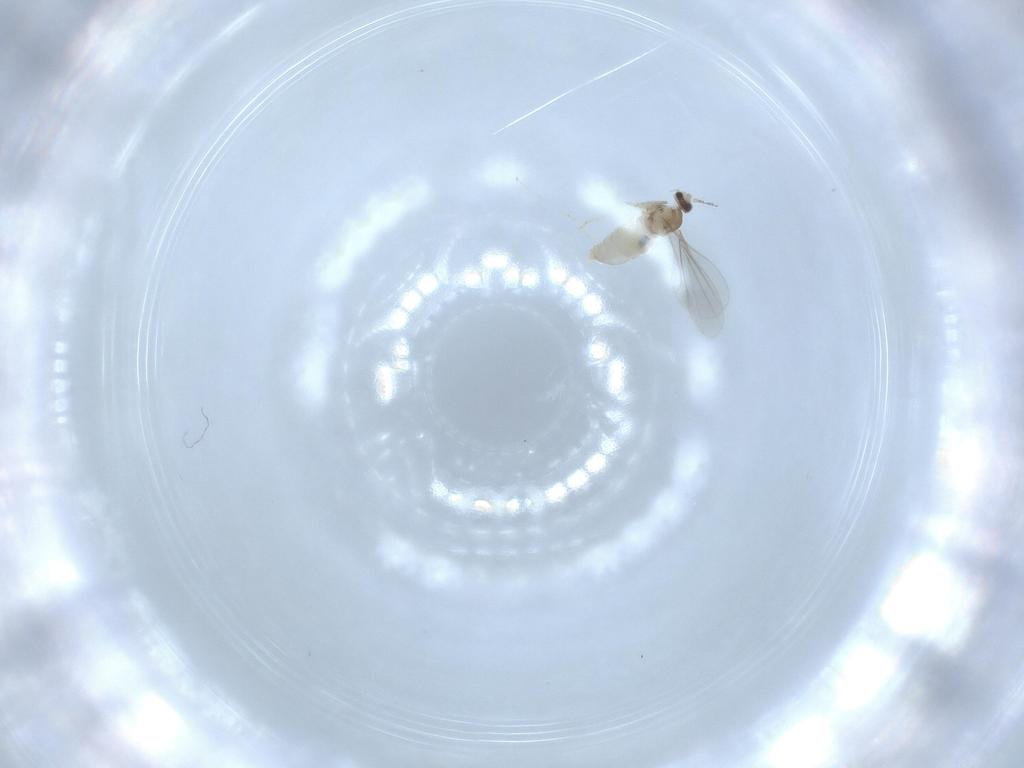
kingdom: Animalia
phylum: Arthropoda
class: Insecta
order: Diptera
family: Cecidomyiidae
